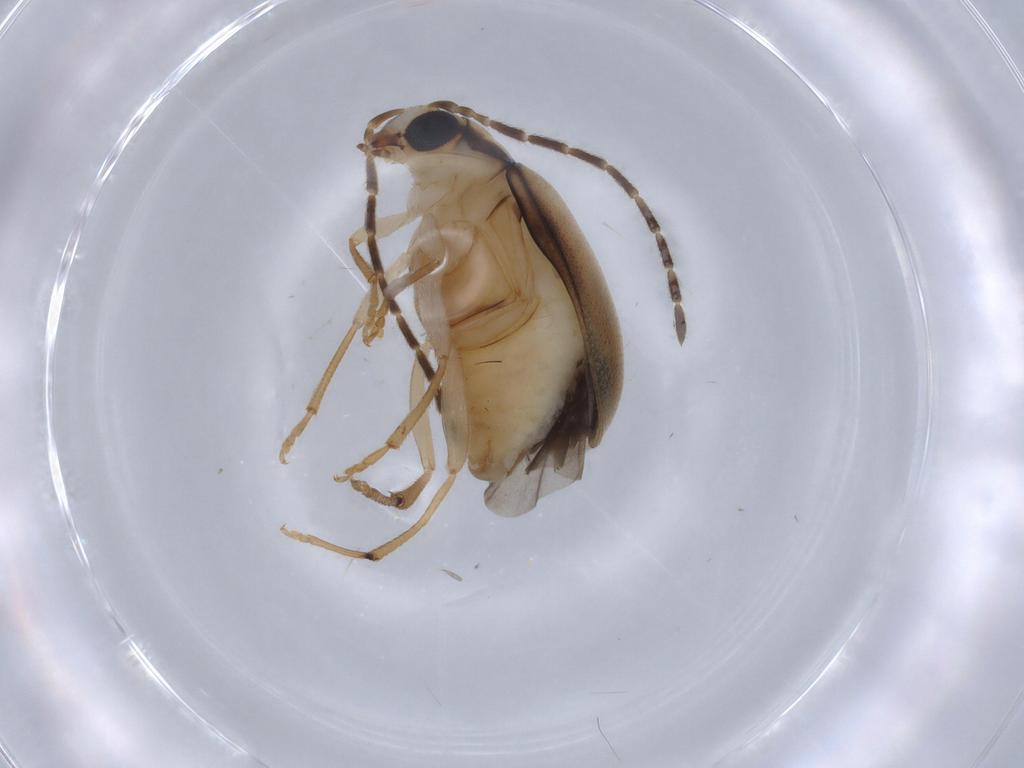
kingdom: Animalia
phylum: Arthropoda
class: Insecta
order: Coleoptera
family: Chrysomelidae
